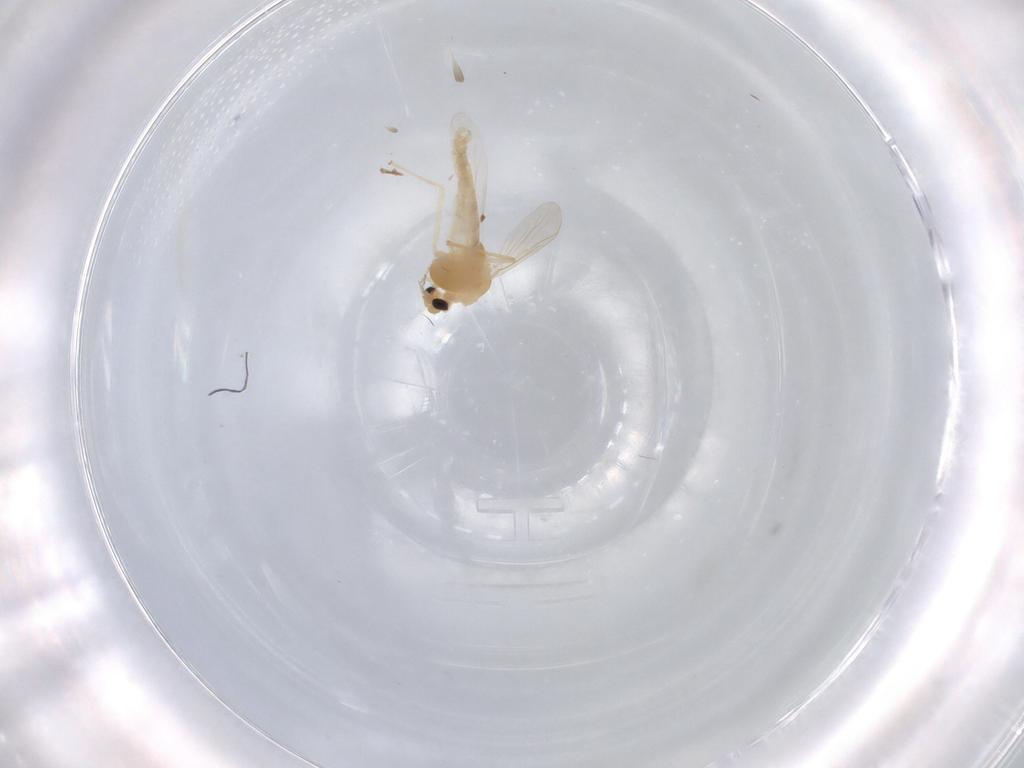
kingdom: Animalia
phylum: Arthropoda
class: Insecta
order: Diptera
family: Chironomidae
